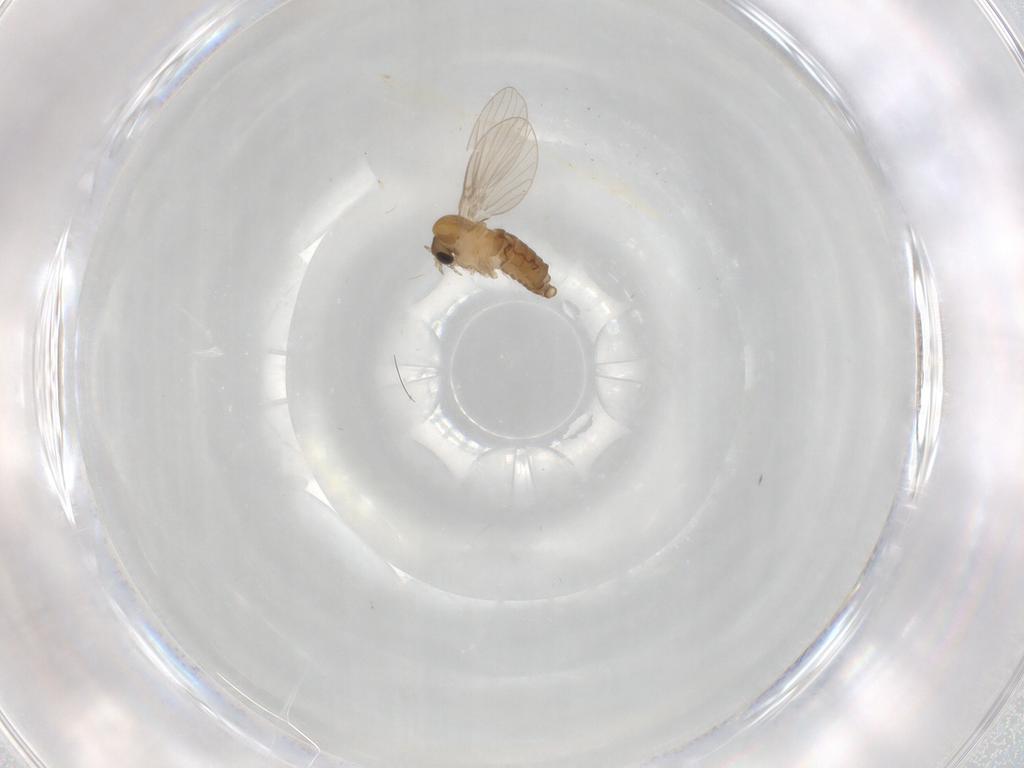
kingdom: Animalia
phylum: Arthropoda
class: Insecta
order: Diptera
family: Psychodidae
